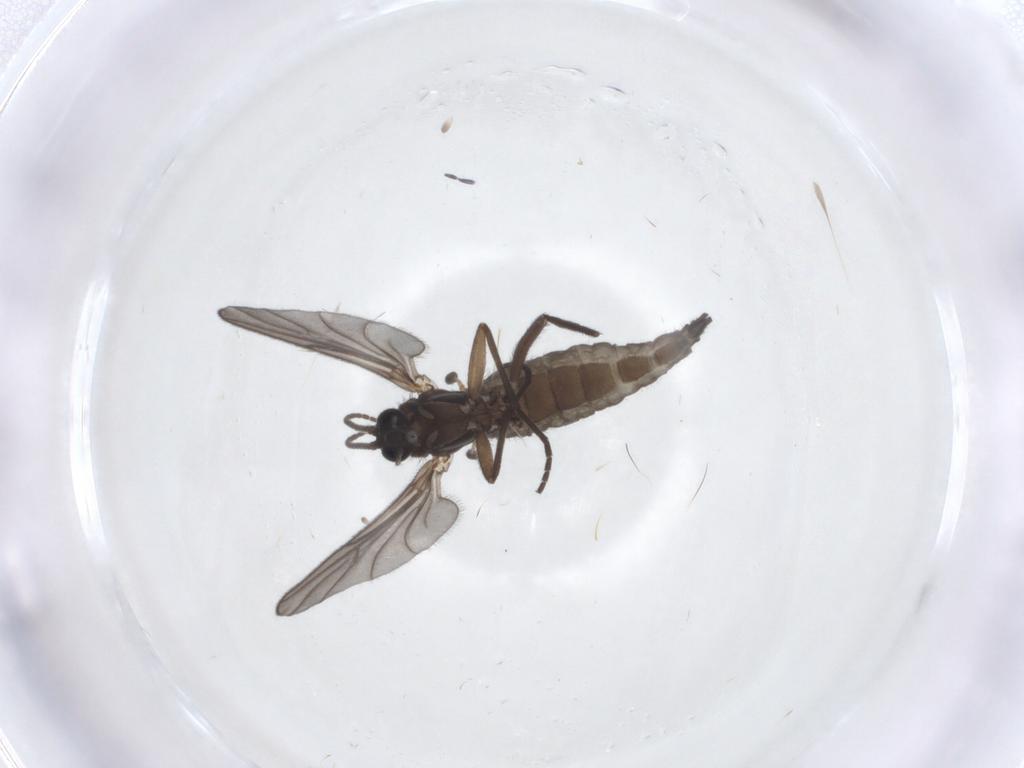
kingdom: Animalia
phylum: Arthropoda
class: Insecta
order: Diptera
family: Sciaridae
